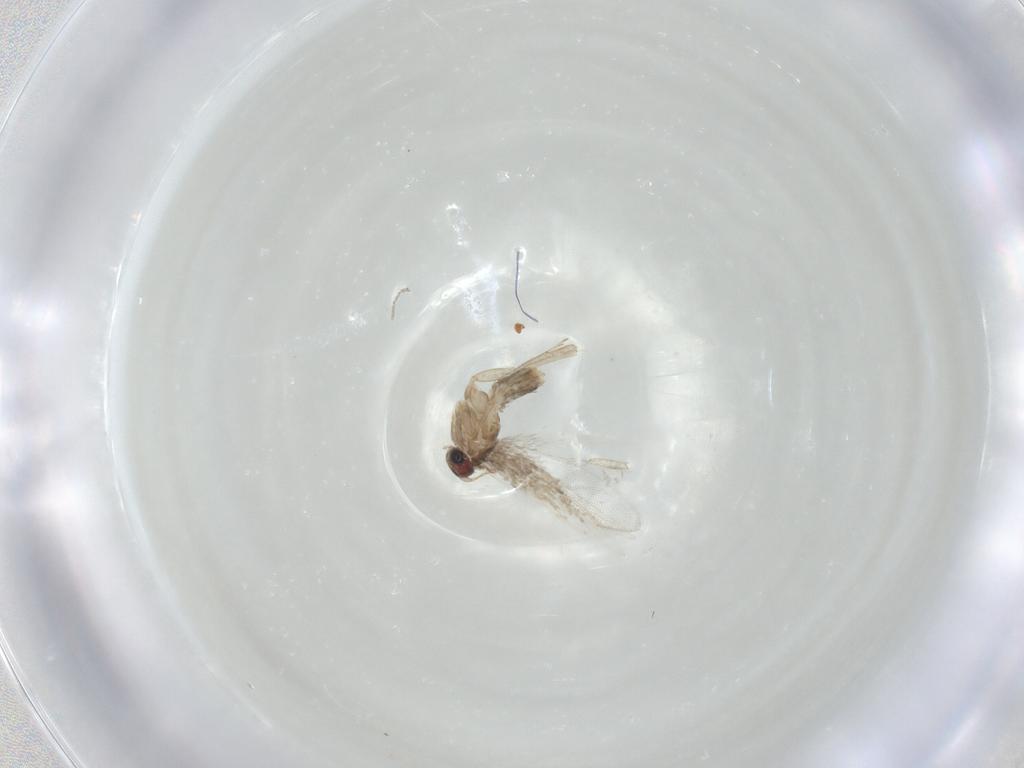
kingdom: Animalia
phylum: Arthropoda
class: Insecta
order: Lepidoptera
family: Nepticulidae
